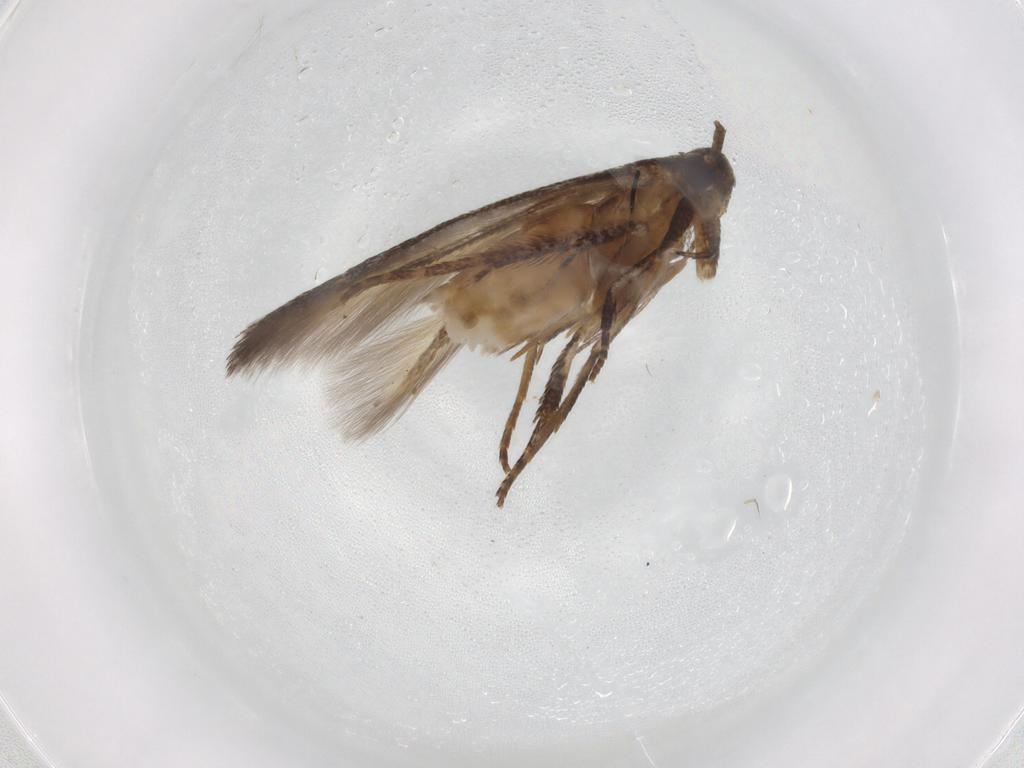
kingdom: Animalia
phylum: Arthropoda
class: Insecta
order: Lepidoptera
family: Cosmopterigidae
